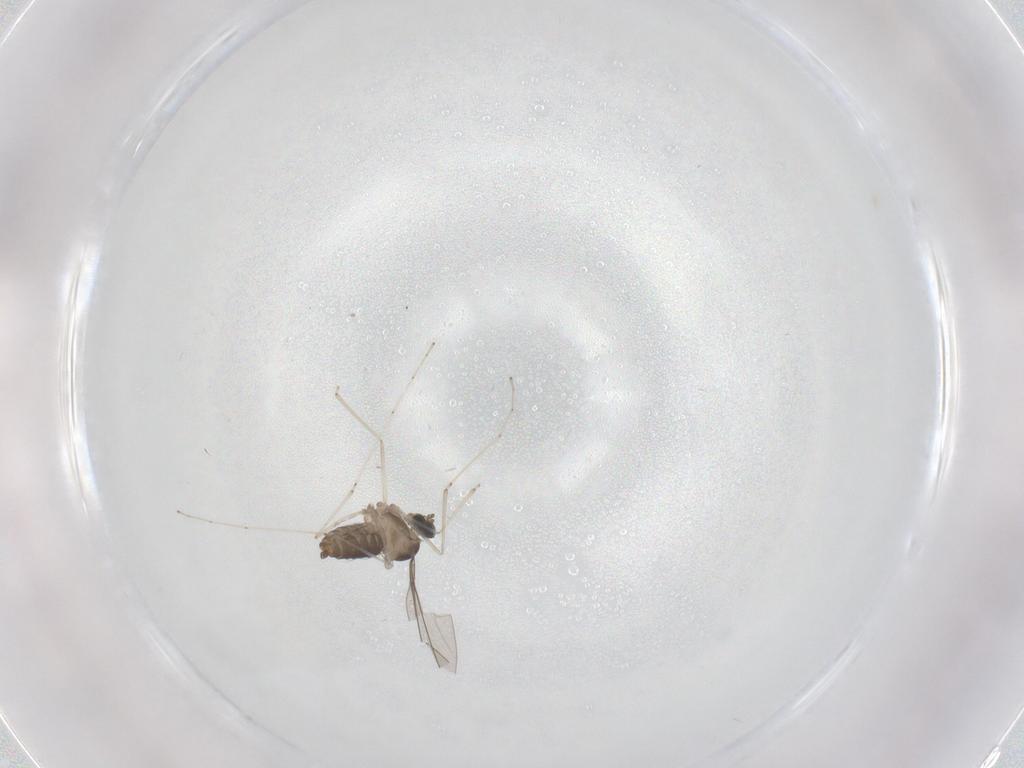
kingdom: Animalia
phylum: Arthropoda
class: Insecta
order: Diptera
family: Cecidomyiidae
